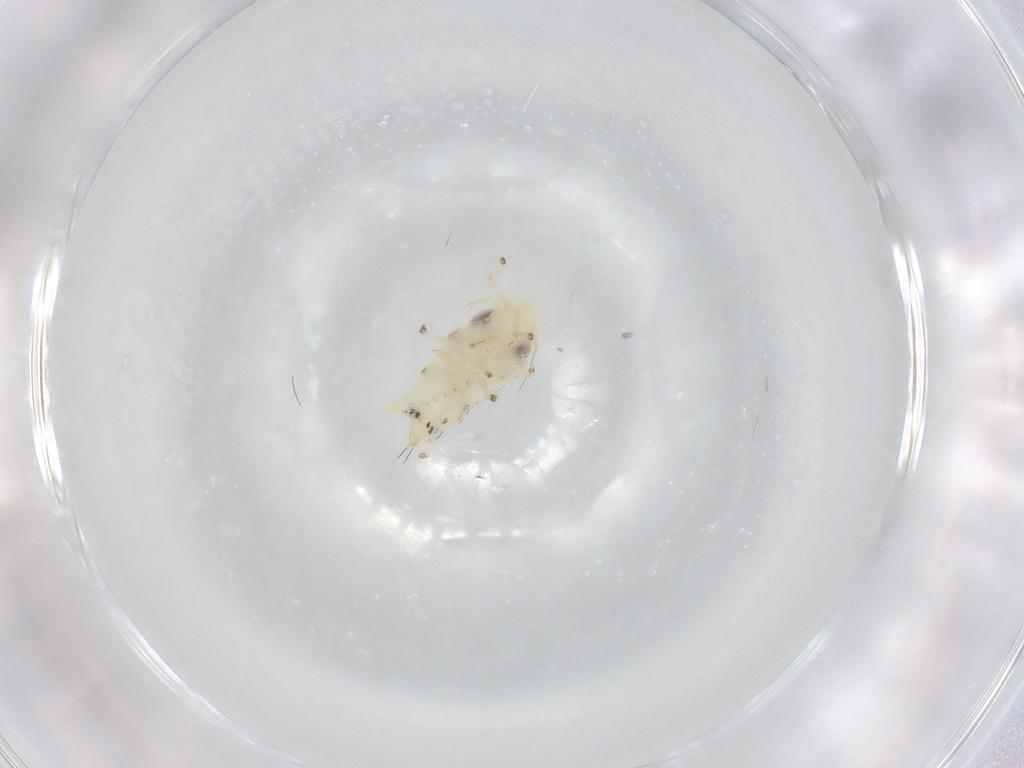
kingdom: Animalia
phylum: Arthropoda
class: Insecta
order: Hemiptera
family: Cicadellidae
